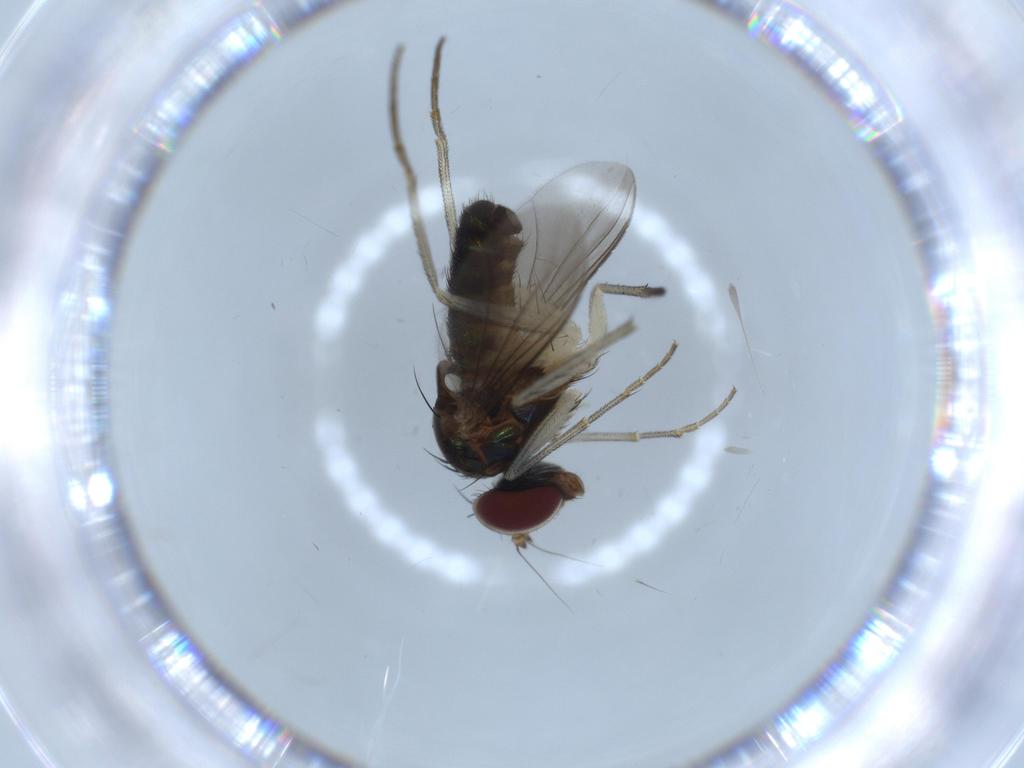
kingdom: Animalia
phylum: Arthropoda
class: Insecta
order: Diptera
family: Dolichopodidae
